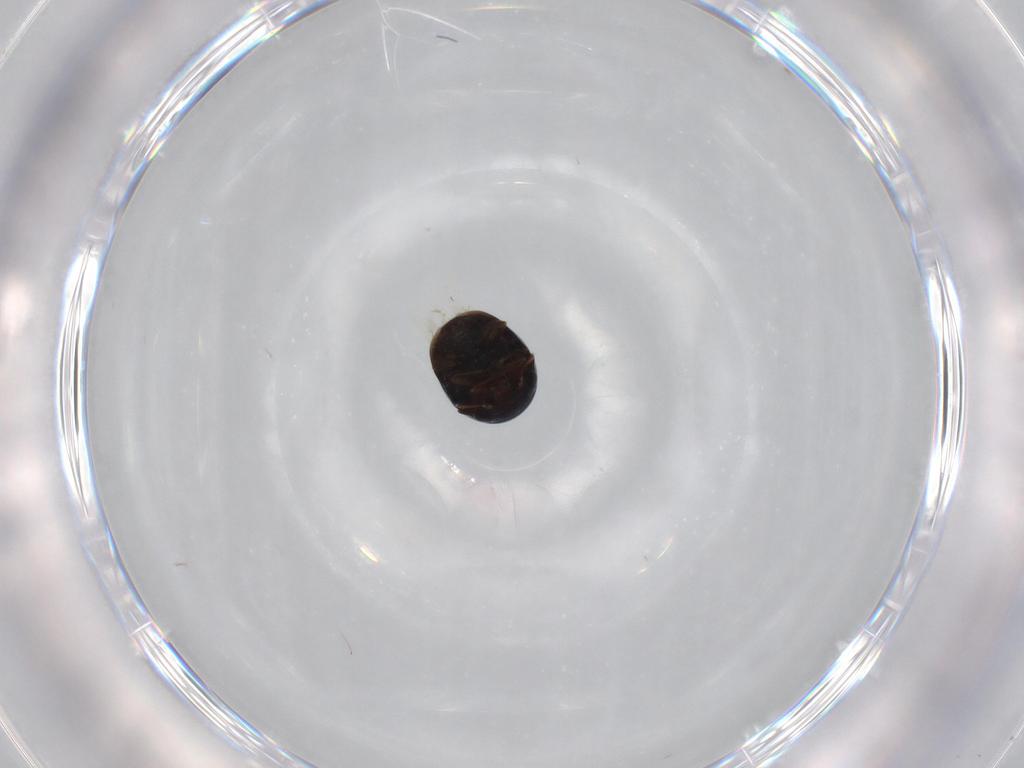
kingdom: Animalia
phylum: Arthropoda
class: Insecta
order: Coleoptera
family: Cybocephalidae
